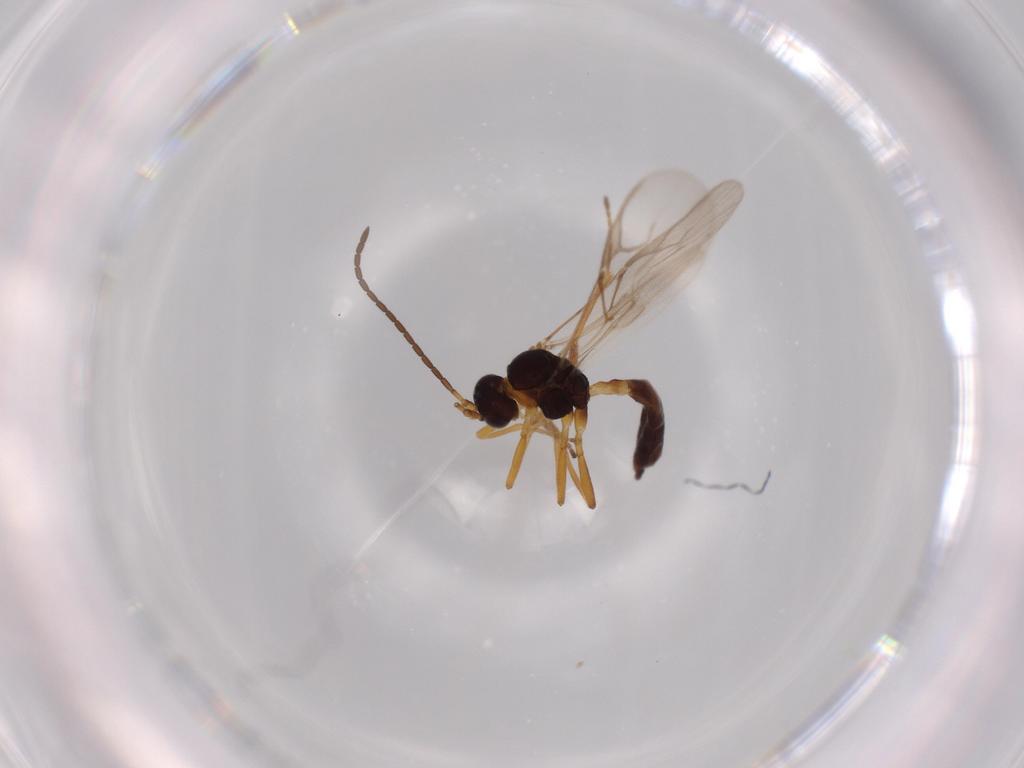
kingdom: Animalia
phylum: Arthropoda
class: Insecta
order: Hymenoptera
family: Braconidae
